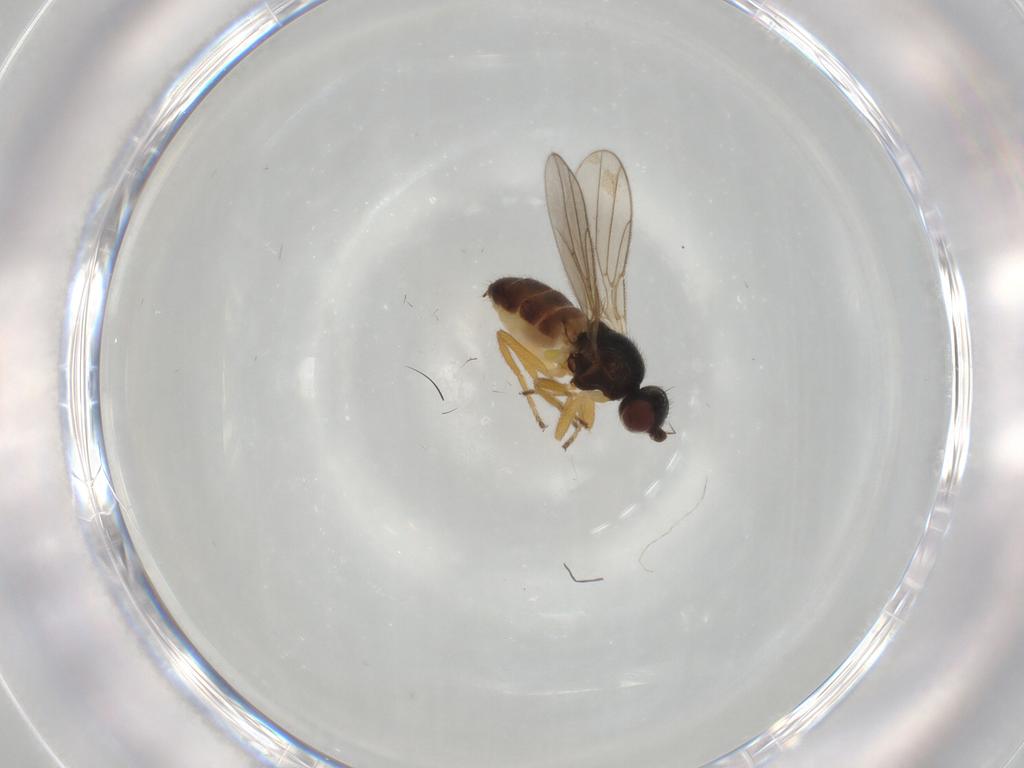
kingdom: Animalia
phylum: Arthropoda
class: Insecta
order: Diptera
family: Chloropidae
